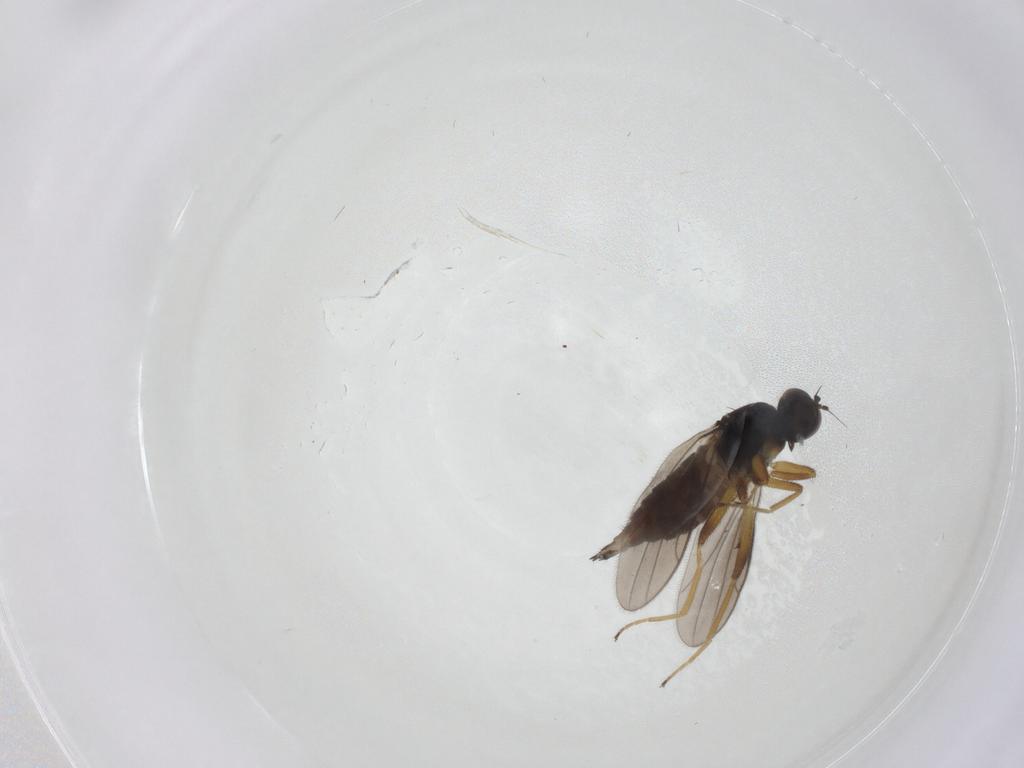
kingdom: Animalia
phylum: Arthropoda
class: Insecta
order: Diptera
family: Hybotidae
